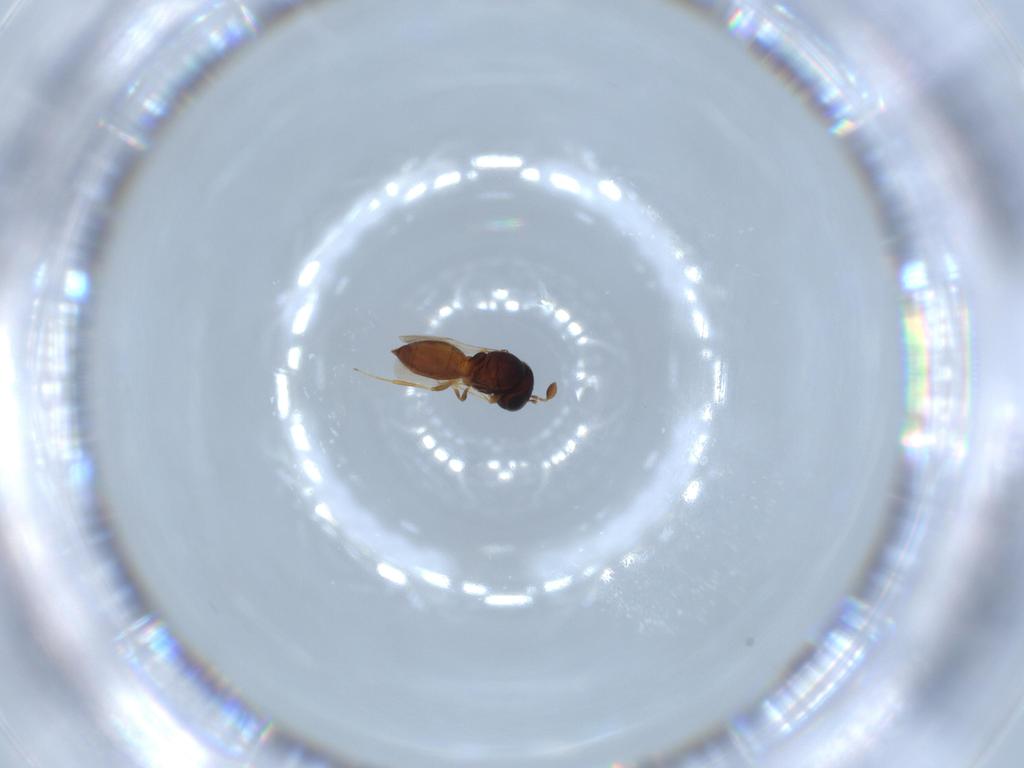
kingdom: Animalia
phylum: Arthropoda
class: Insecta
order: Hymenoptera
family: Scelionidae
